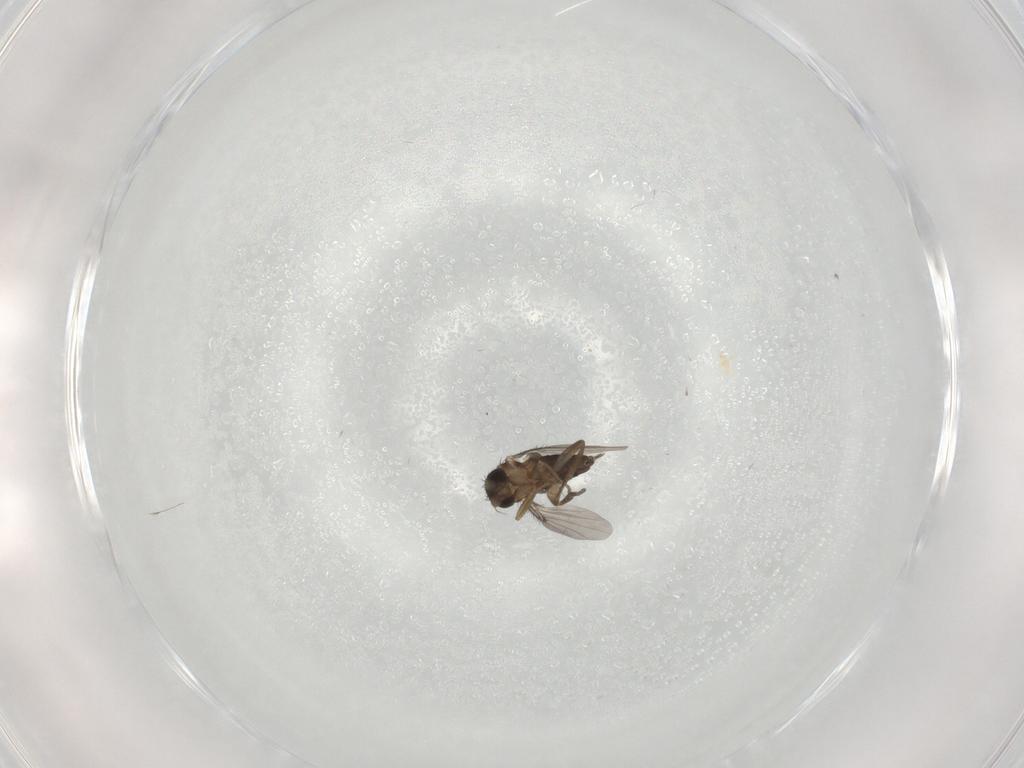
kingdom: Animalia
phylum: Arthropoda
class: Insecta
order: Diptera
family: Phoridae
